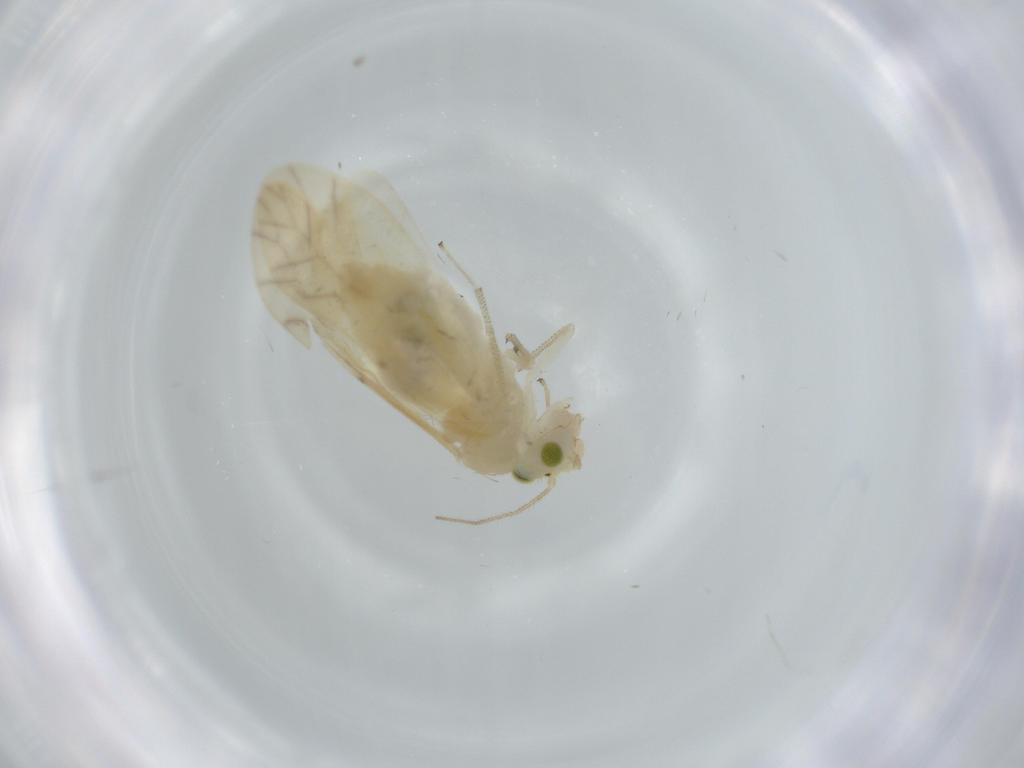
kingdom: Animalia
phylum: Arthropoda
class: Insecta
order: Psocodea
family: Caeciliusidae
